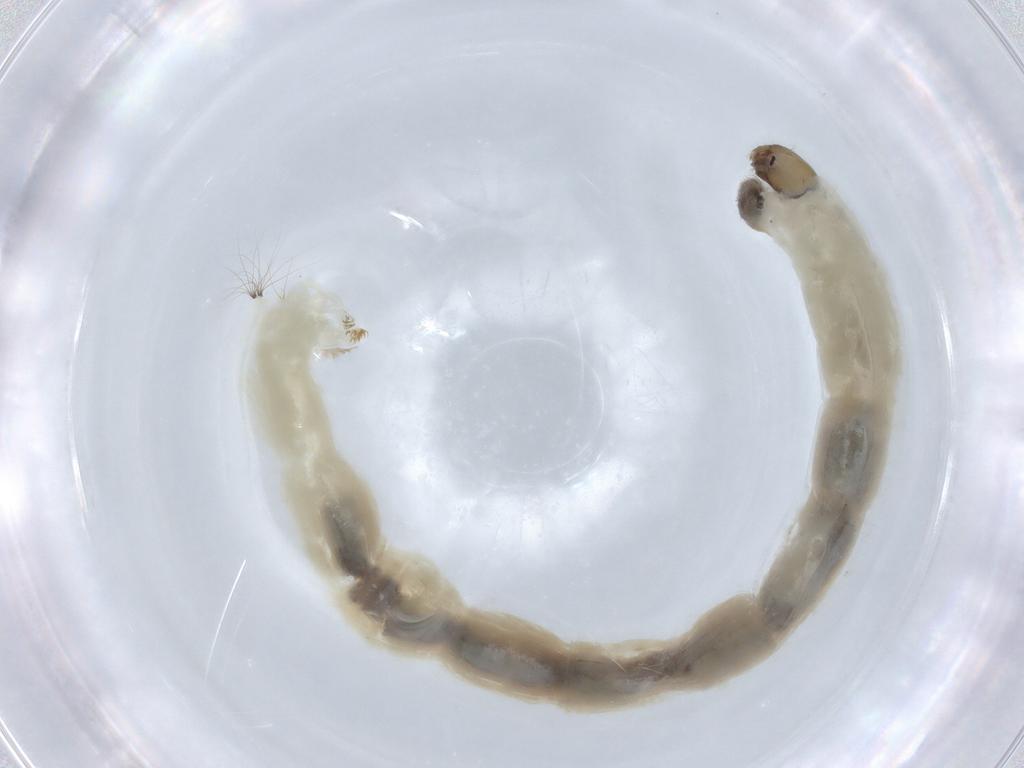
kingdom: Animalia
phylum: Arthropoda
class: Insecta
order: Diptera
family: Chironomidae
